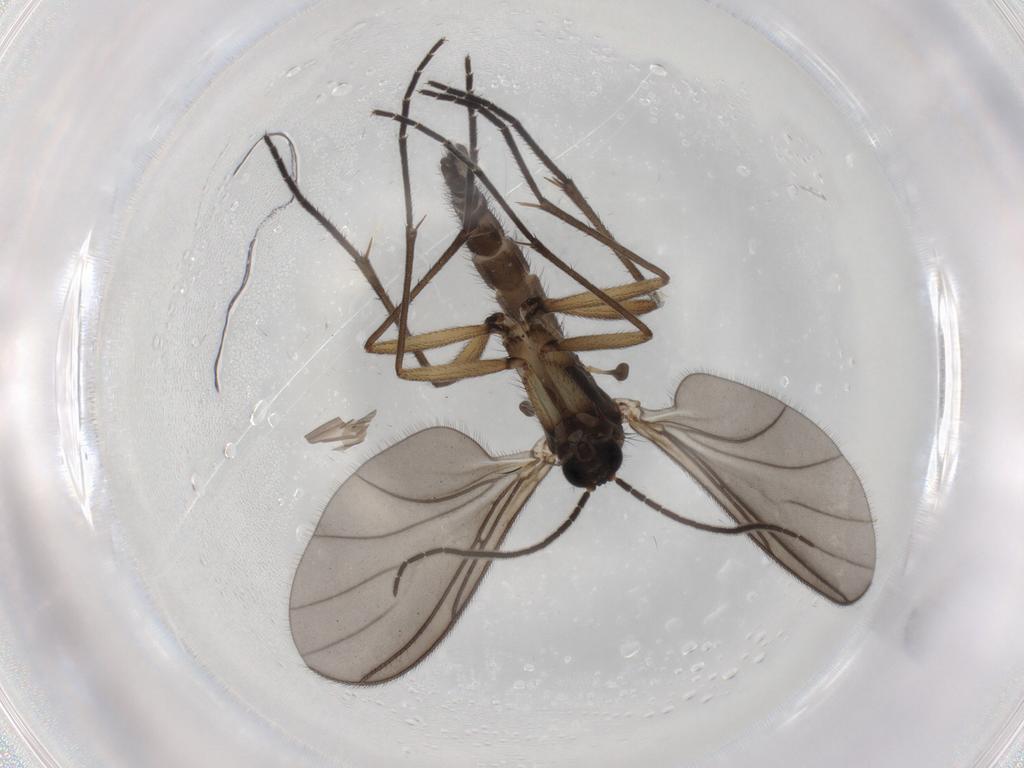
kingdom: Animalia
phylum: Arthropoda
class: Insecta
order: Diptera
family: Sciaridae
